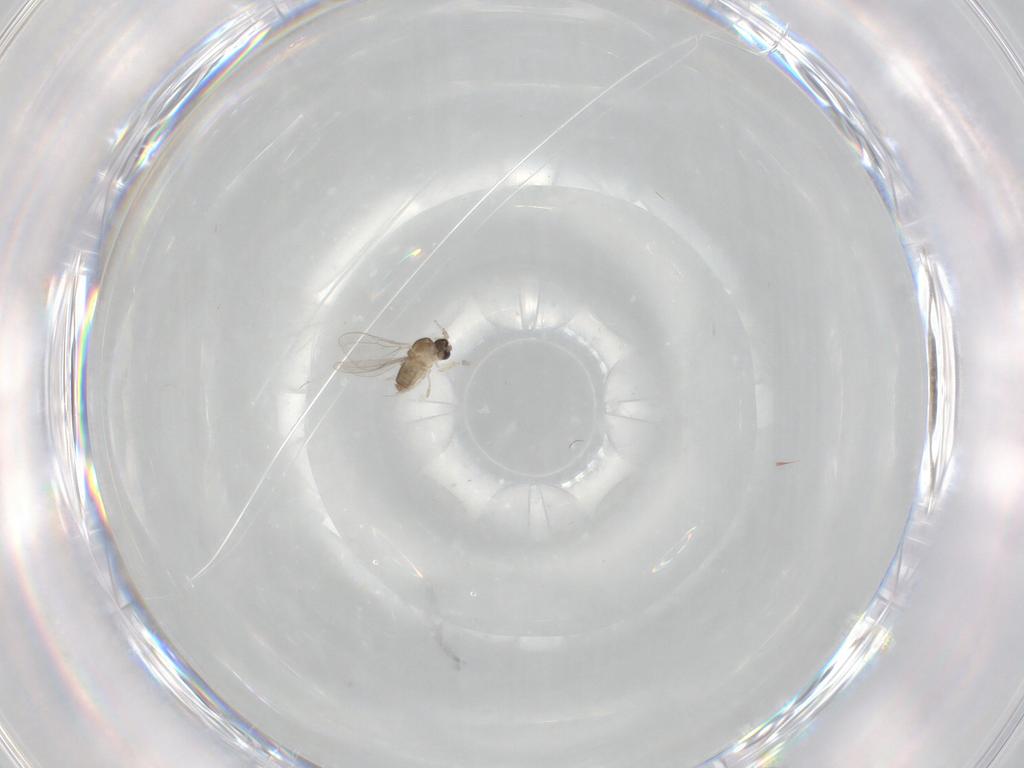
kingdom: Animalia
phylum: Arthropoda
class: Insecta
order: Diptera
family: Cecidomyiidae
